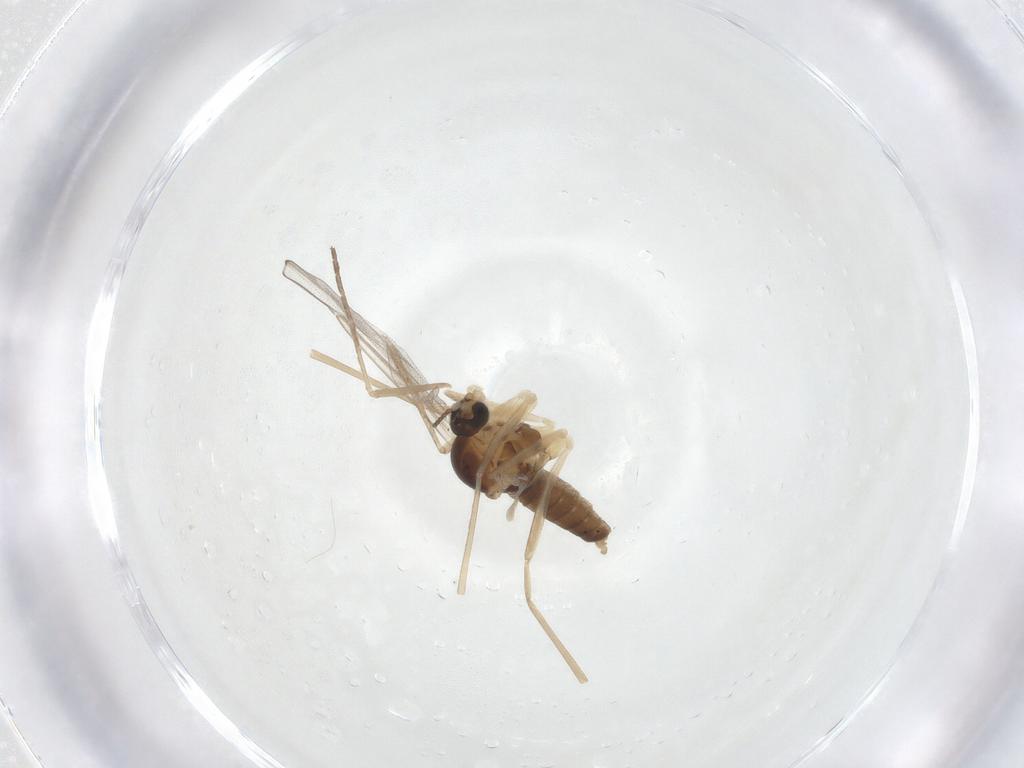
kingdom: Animalia
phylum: Arthropoda
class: Insecta
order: Diptera
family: Cecidomyiidae
